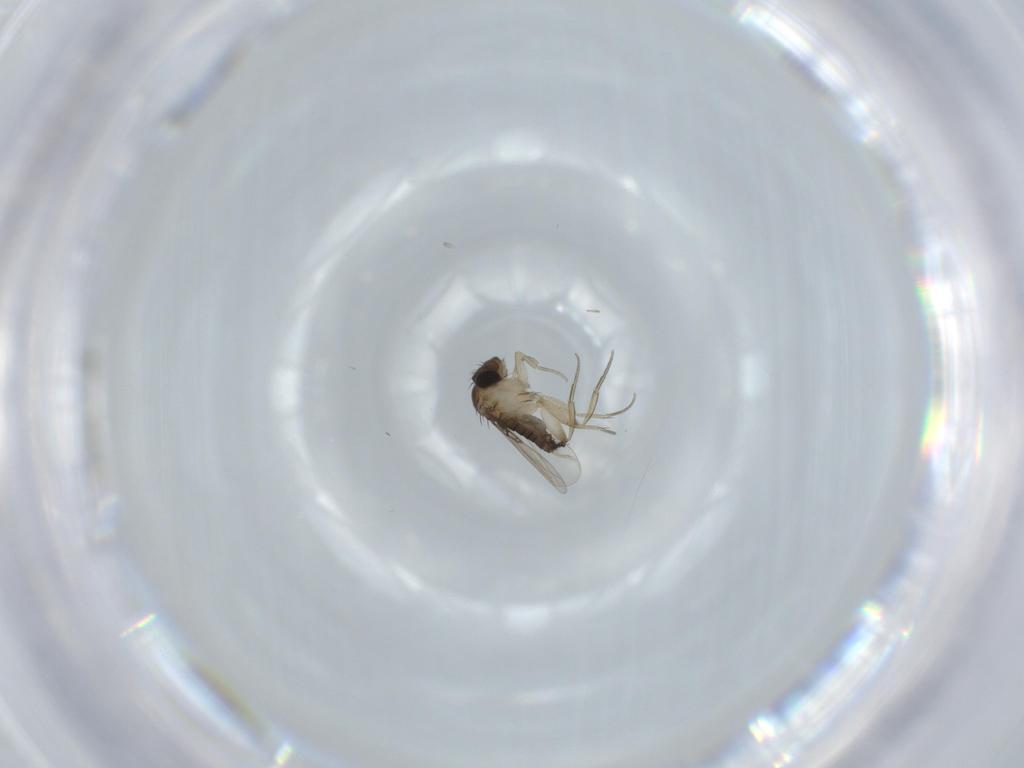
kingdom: Animalia
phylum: Arthropoda
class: Insecta
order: Diptera
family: Phoridae
